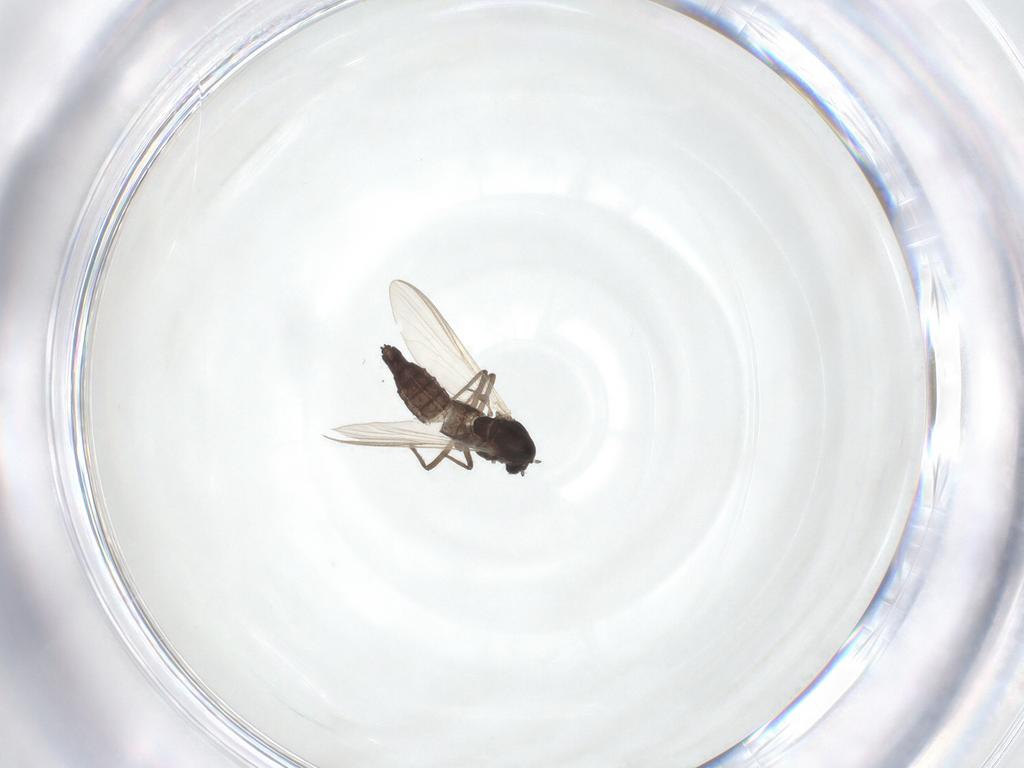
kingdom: Animalia
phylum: Arthropoda
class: Insecta
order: Diptera
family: Chironomidae
